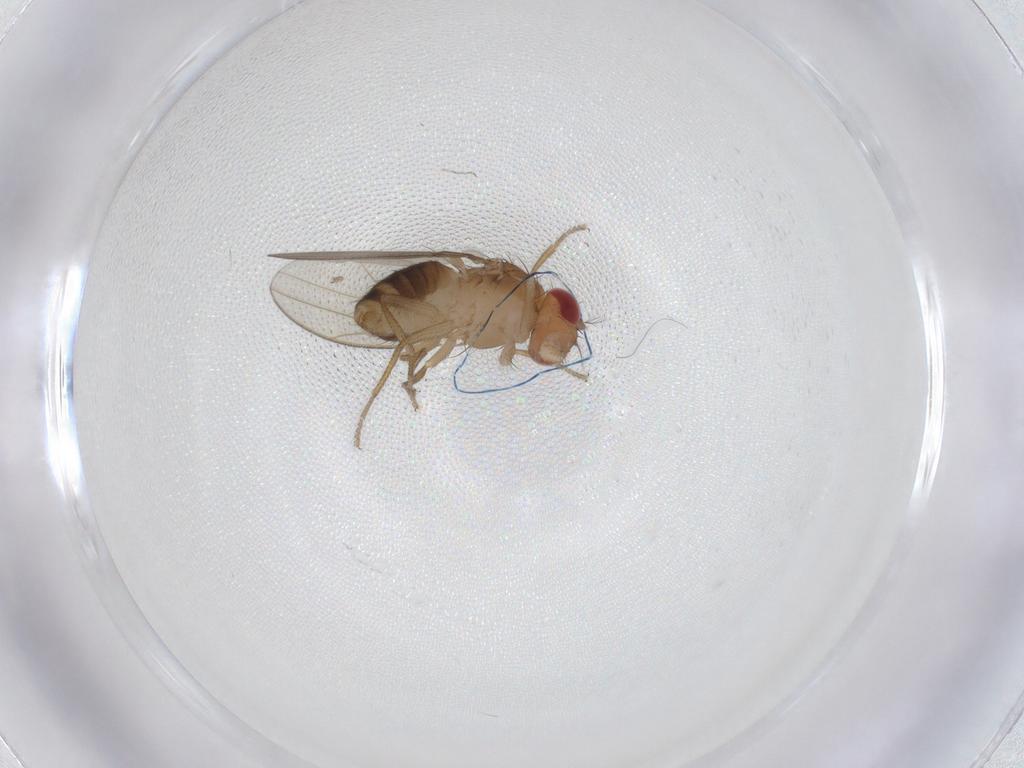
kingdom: Animalia
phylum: Arthropoda
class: Insecta
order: Diptera
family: Drosophilidae
